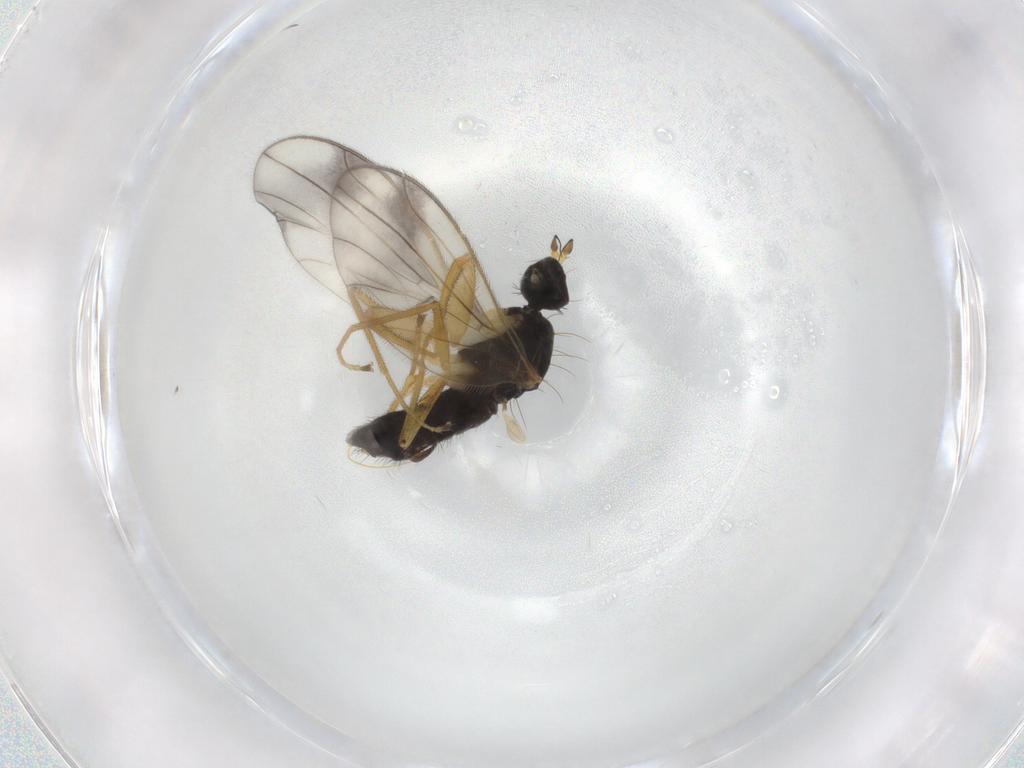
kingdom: Animalia
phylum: Arthropoda
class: Insecta
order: Diptera
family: Ceratopogonidae
